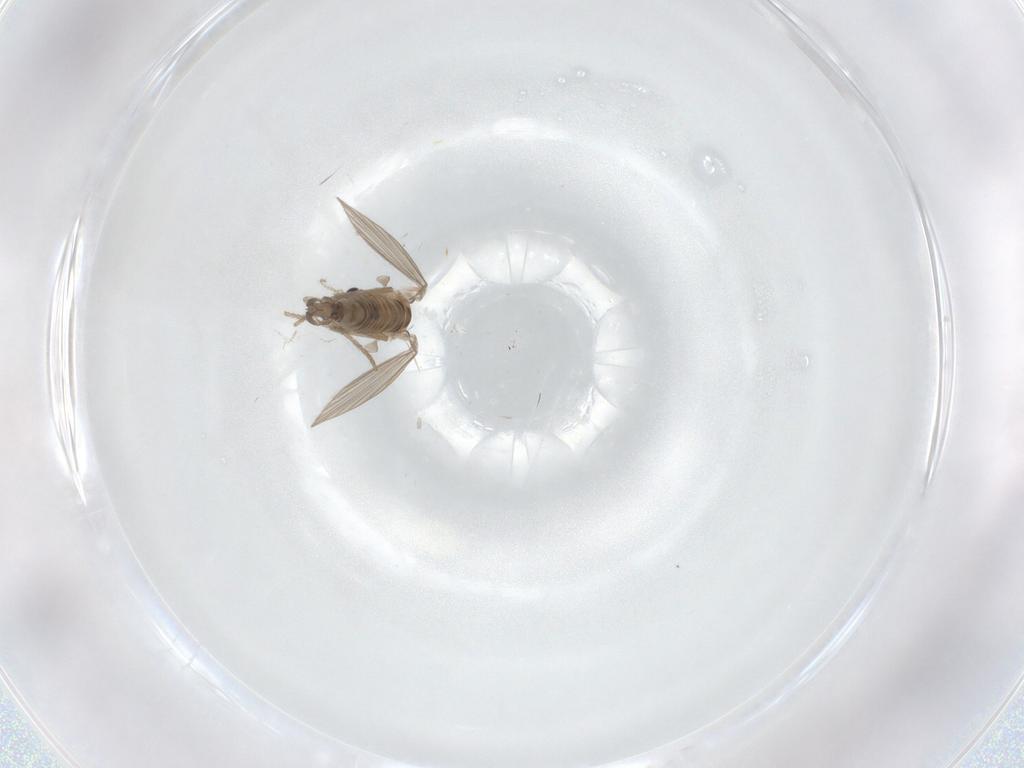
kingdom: Animalia
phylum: Arthropoda
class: Insecta
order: Diptera
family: Psychodidae
